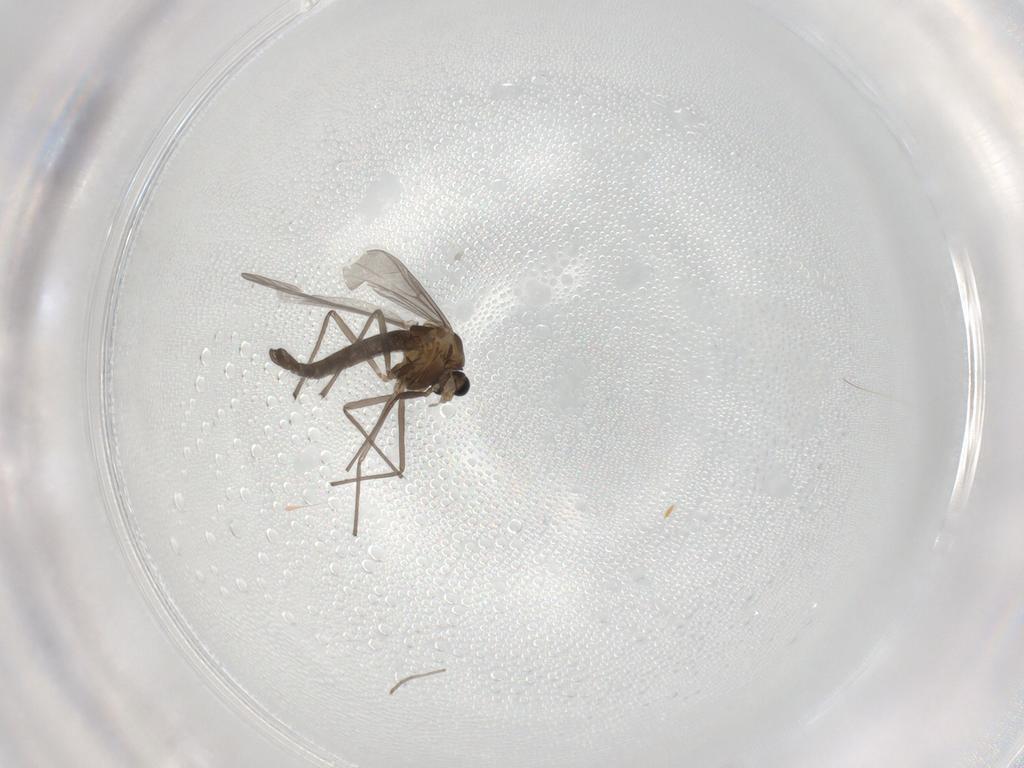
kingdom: Animalia
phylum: Arthropoda
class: Insecta
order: Diptera
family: Chironomidae
